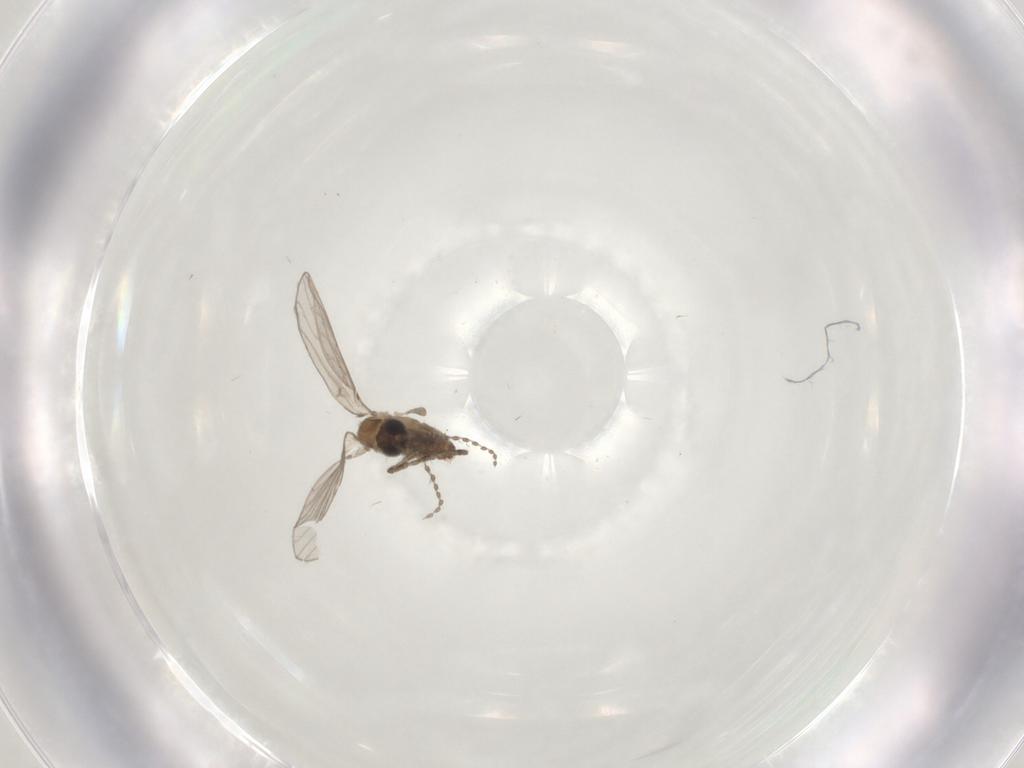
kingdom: Animalia
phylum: Arthropoda
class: Insecta
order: Diptera
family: Psychodidae
